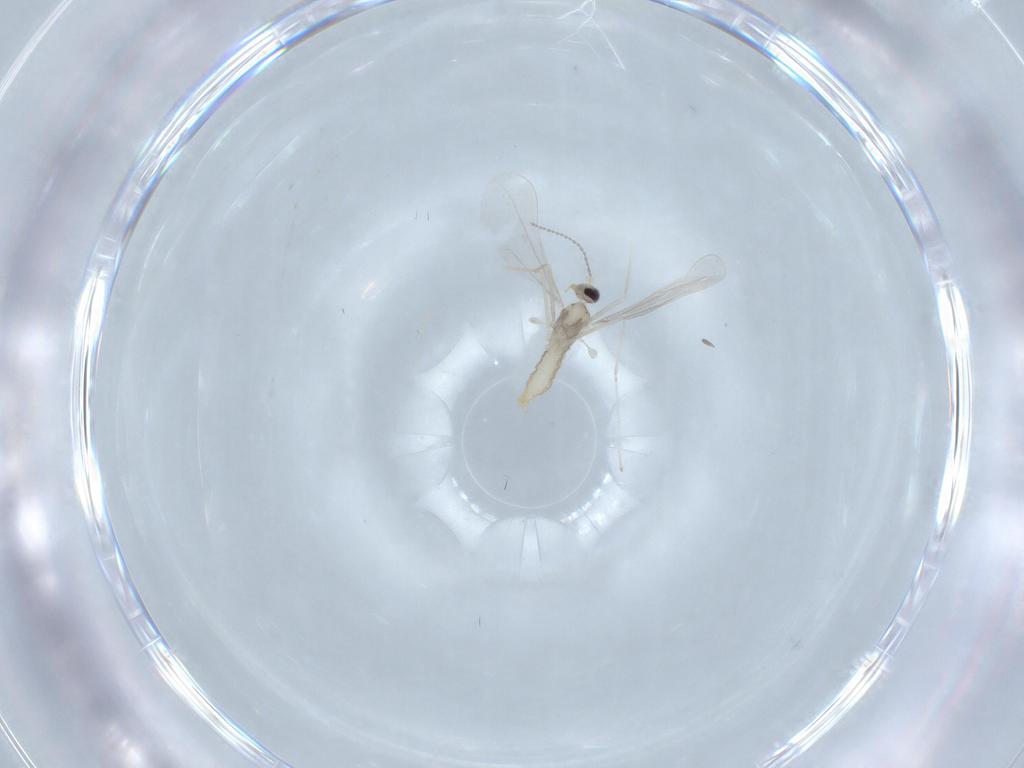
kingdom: Animalia
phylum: Arthropoda
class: Insecta
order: Diptera
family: Cecidomyiidae
